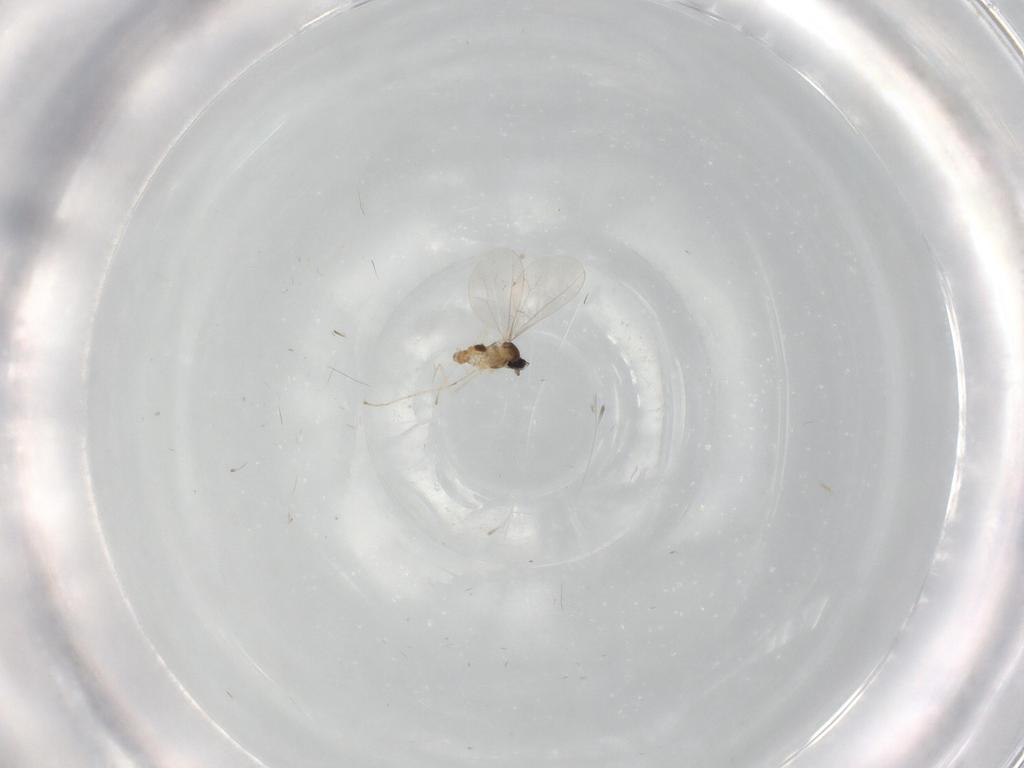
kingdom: Animalia
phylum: Arthropoda
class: Insecta
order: Diptera
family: Cecidomyiidae
